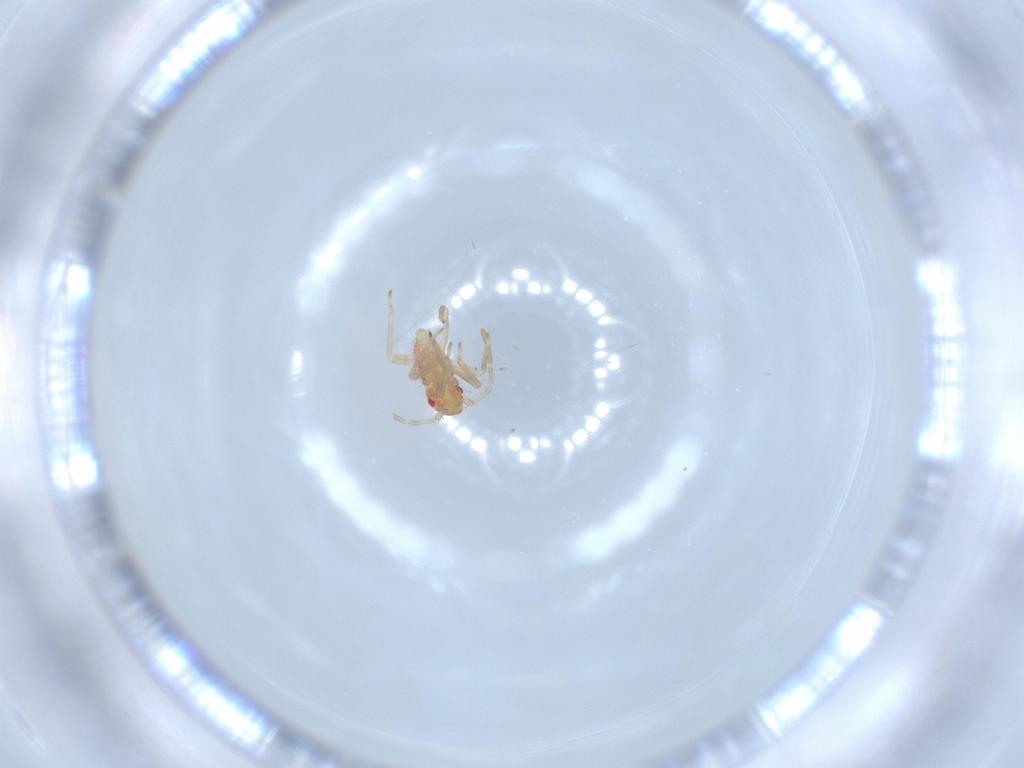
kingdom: Animalia
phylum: Arthropoda
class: Insecta
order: Hemiptera
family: Miridae
